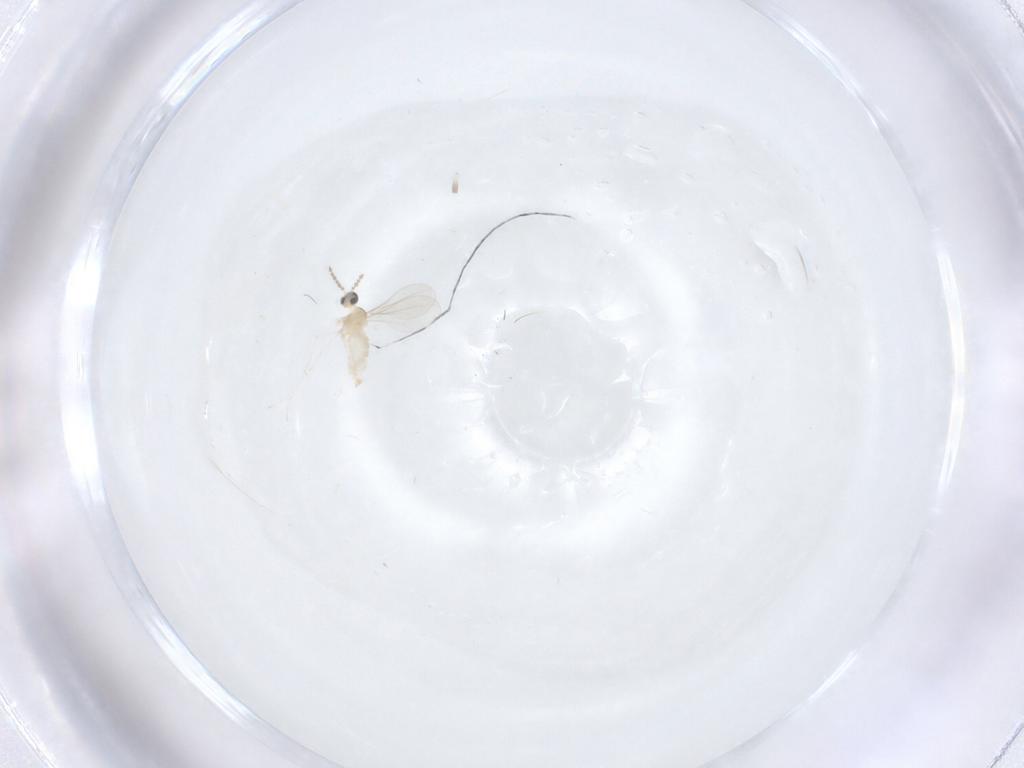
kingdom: Animalia
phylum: Arthropoda
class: Insecta
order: Diptera
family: Cecidomyiidae
